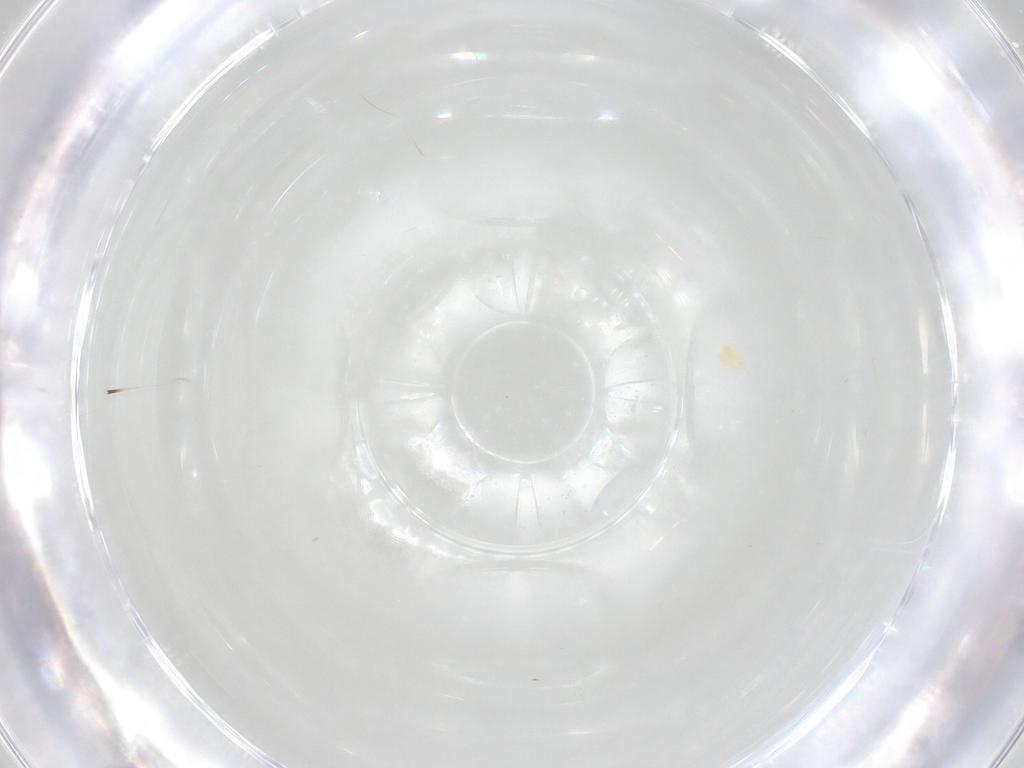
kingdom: Animalia
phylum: Arthropoda
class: Arachnida
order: Trombidiformes
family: Eupodidae
